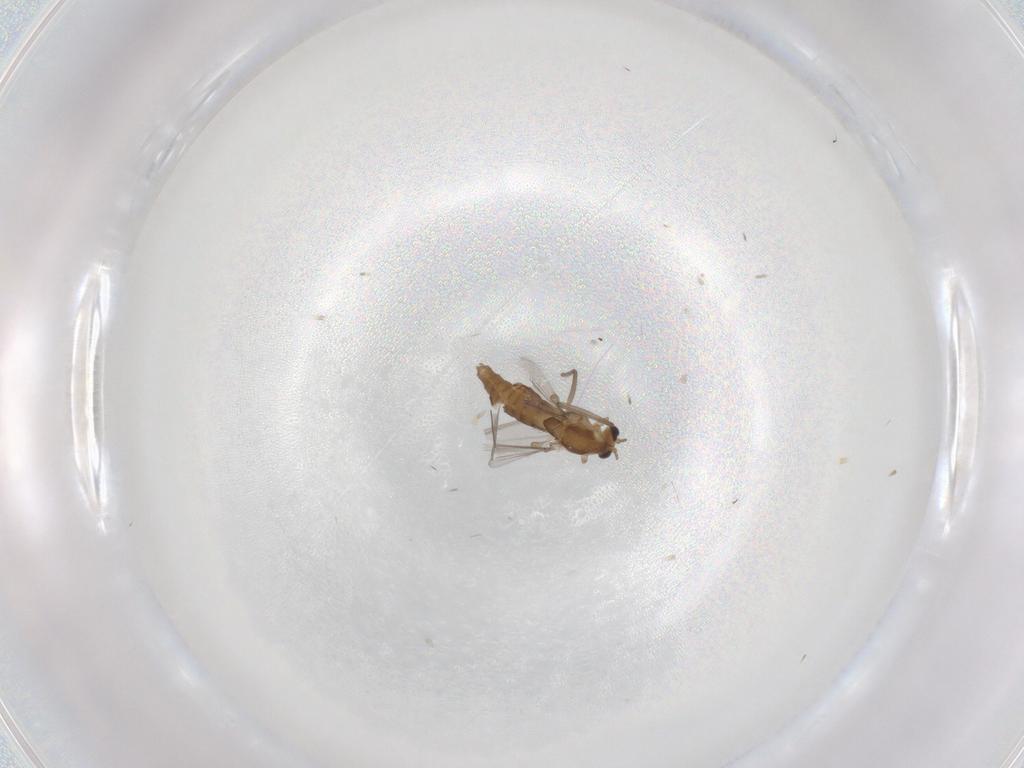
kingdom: Animalia
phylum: Arthropoda
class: Insecta
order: Diptera
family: Chironomidae
